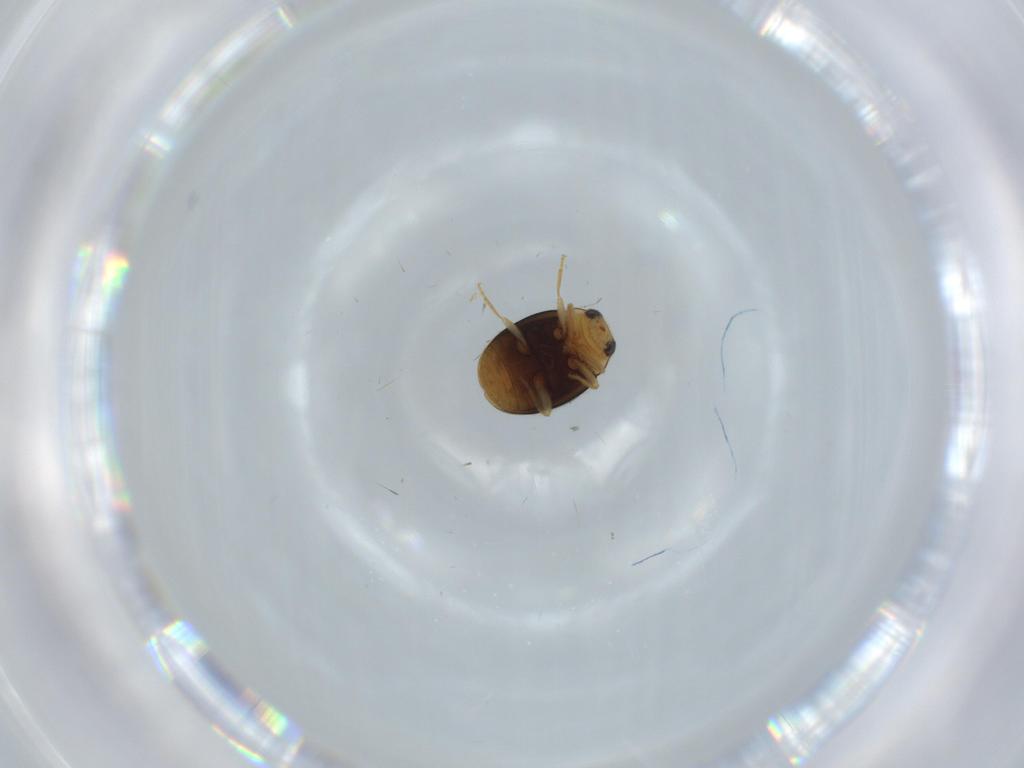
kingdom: Animalia
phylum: Arthropoda
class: Insecta
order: Coleoptera
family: Coccinellidae
